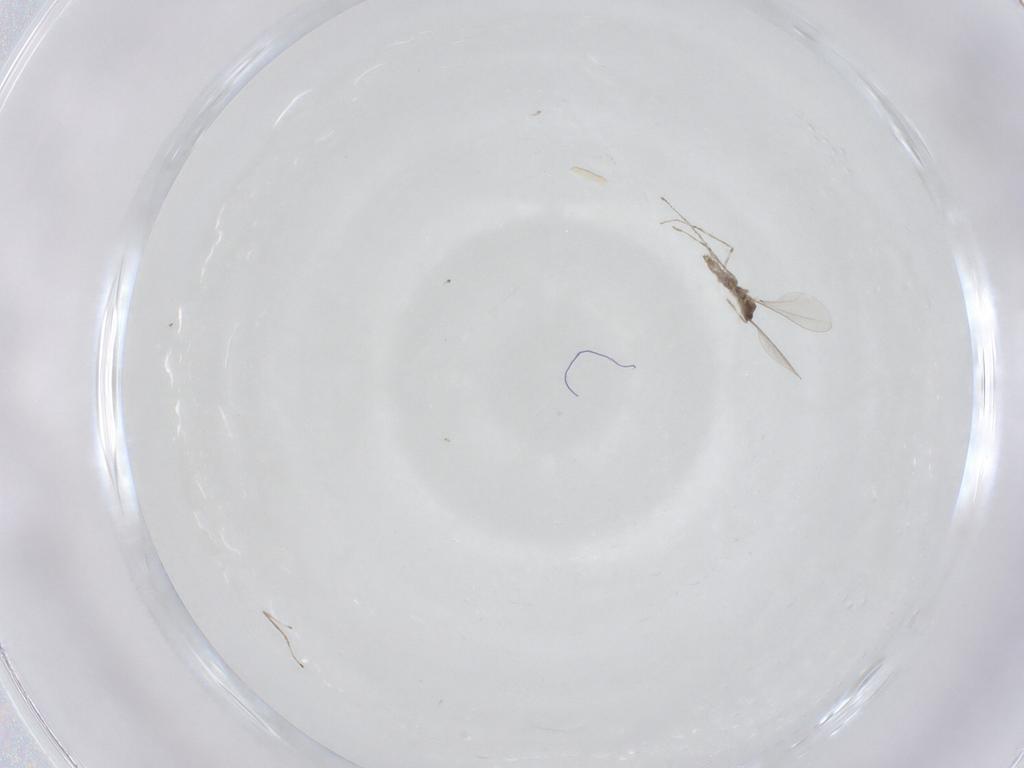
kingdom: Animalia
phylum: Arthropoda
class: Insecta
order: Diptera
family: Cecidomyiidae
